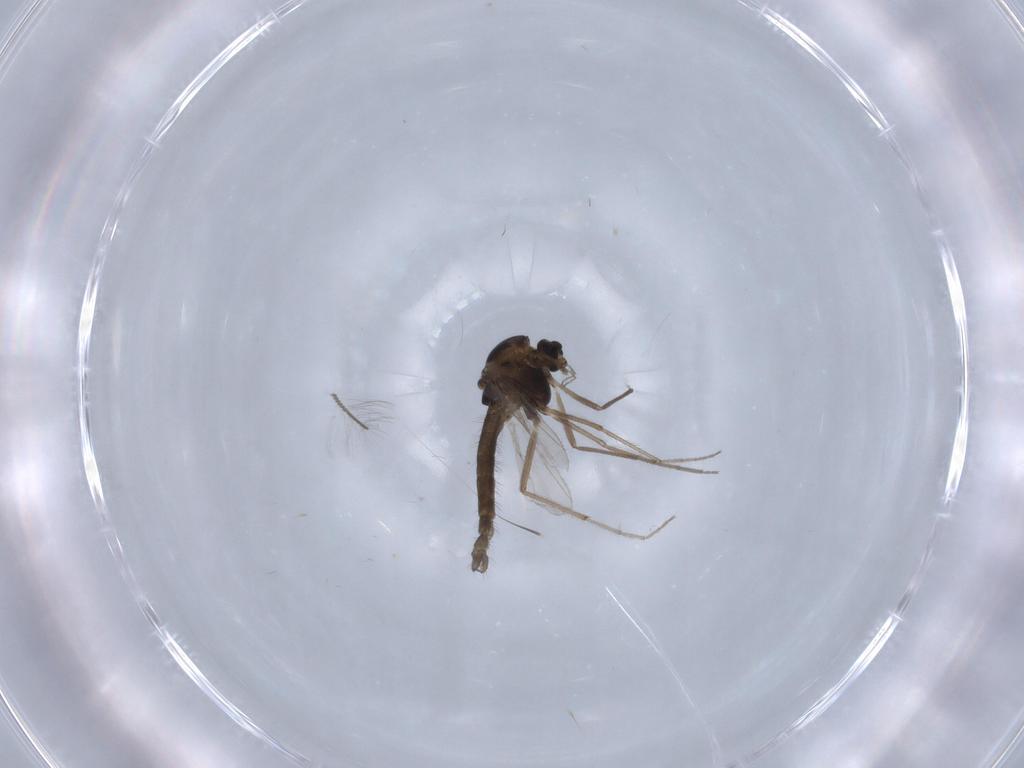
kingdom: Animalia
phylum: Arthropoda
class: Insecta
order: Diptera
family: Chironomidae
